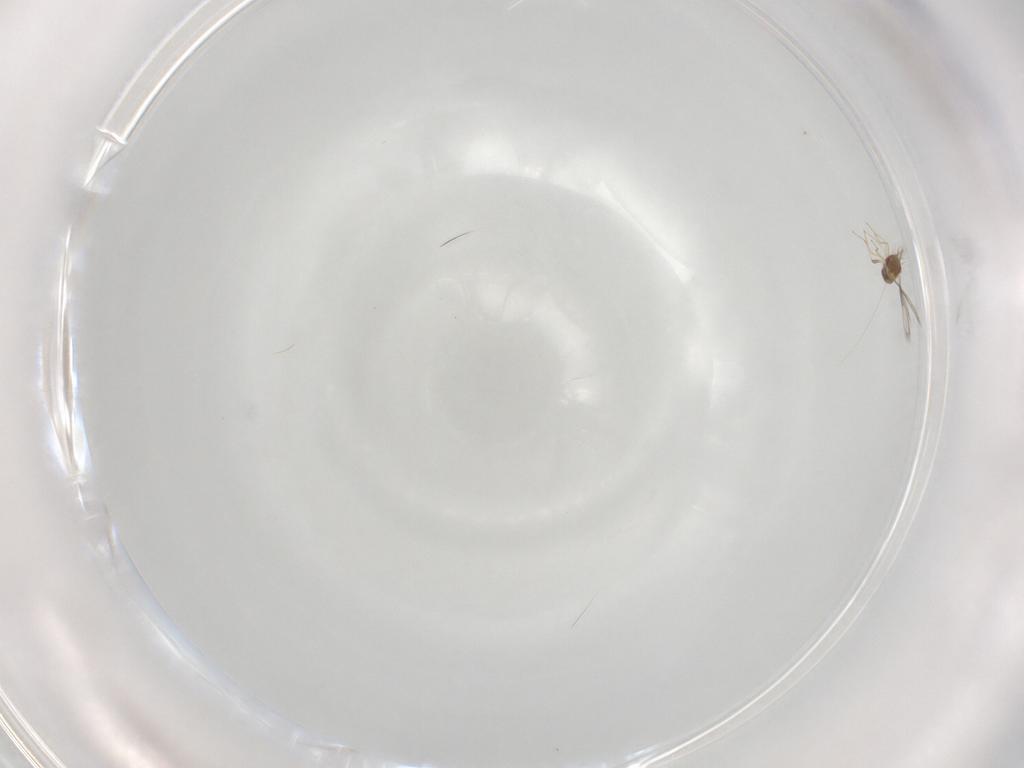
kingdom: Animalia
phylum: Arthropoda
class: Insecta
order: Hymenoptera
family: Trichogrammatidae
